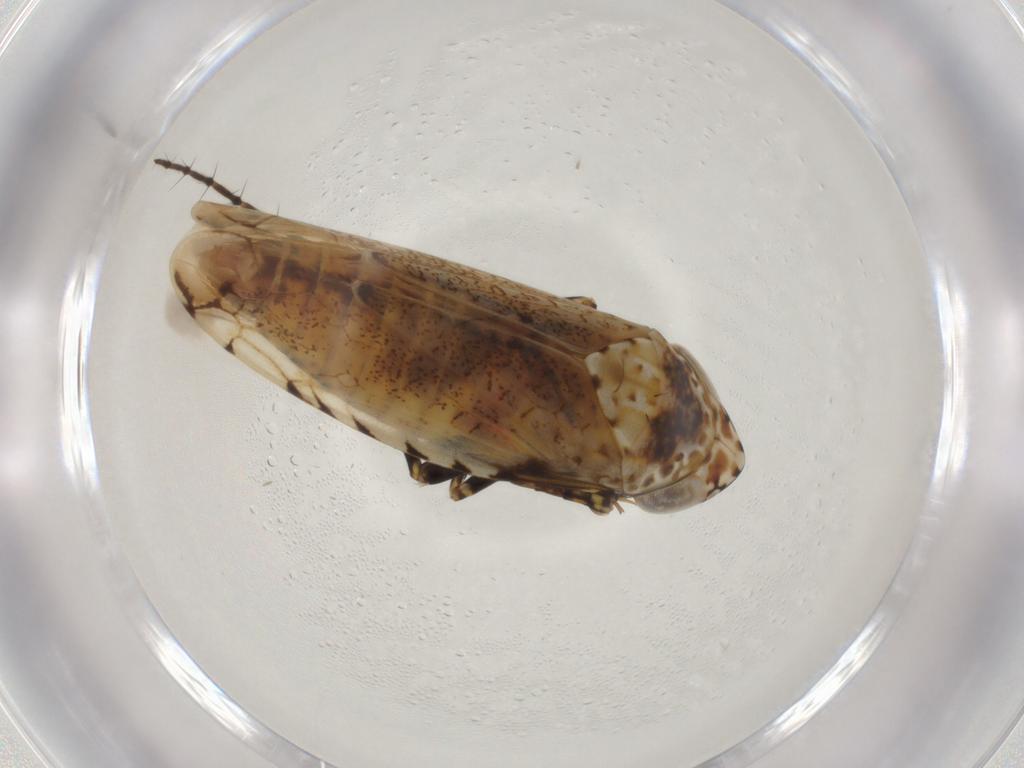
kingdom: Animalia
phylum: Arthropoda
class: Insecta
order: Hemiptera
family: Cicadellidae
